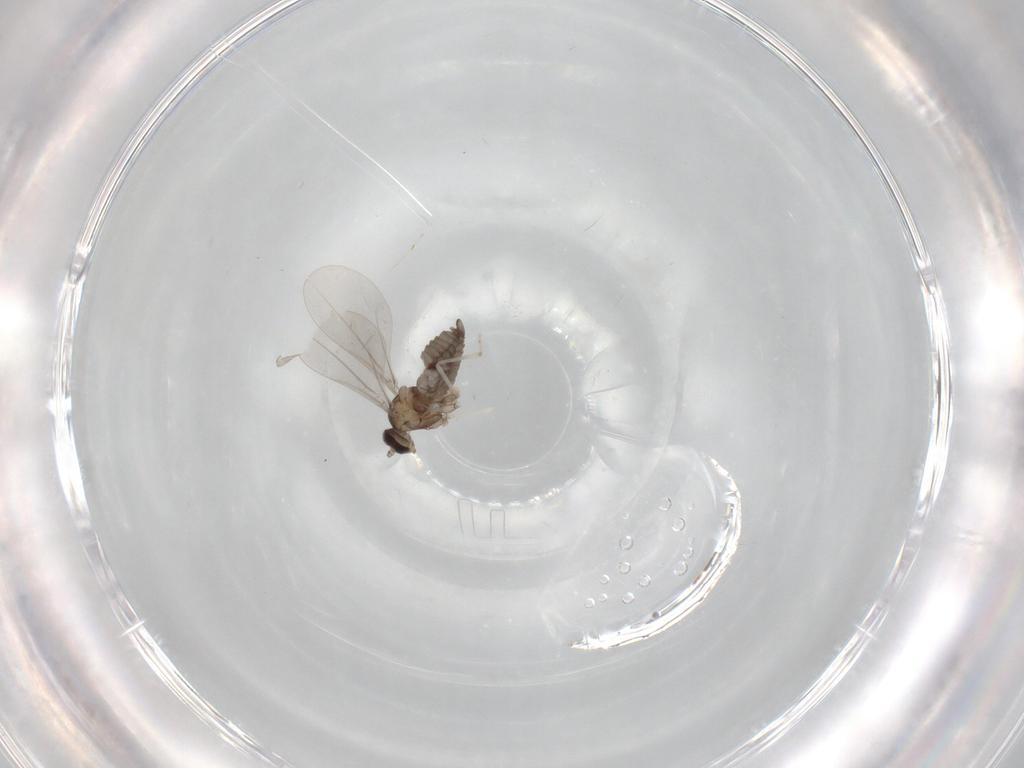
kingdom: Animalia
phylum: Arthropoda
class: Insecta
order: Diptera
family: Cecidomyiidae
